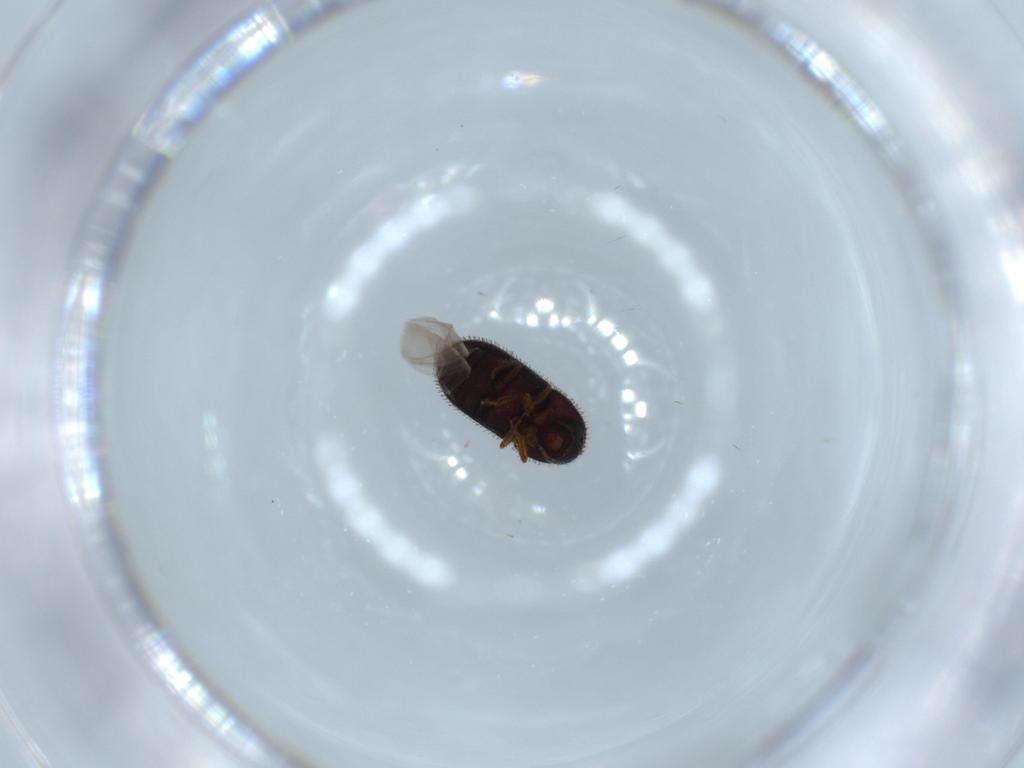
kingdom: Animalia
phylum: Arthropoda
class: Insecta
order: Coleoptera
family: Curculionidae
